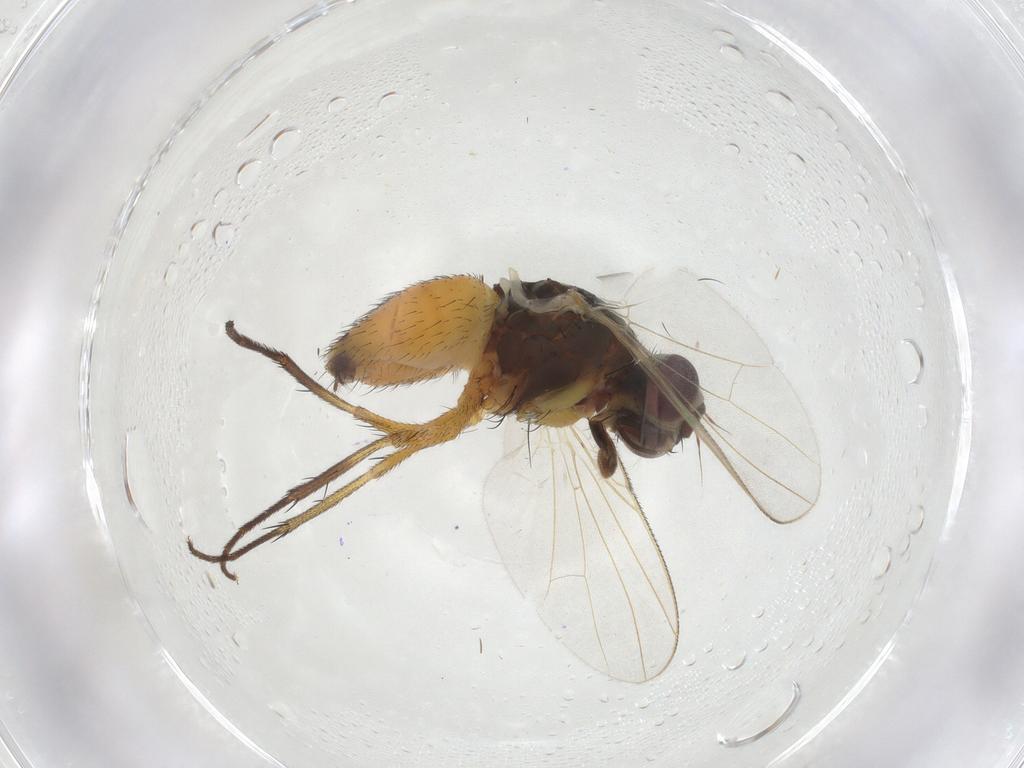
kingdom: Animalia
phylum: Arthropoda
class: Insecta
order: Diptera
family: Muscidae
